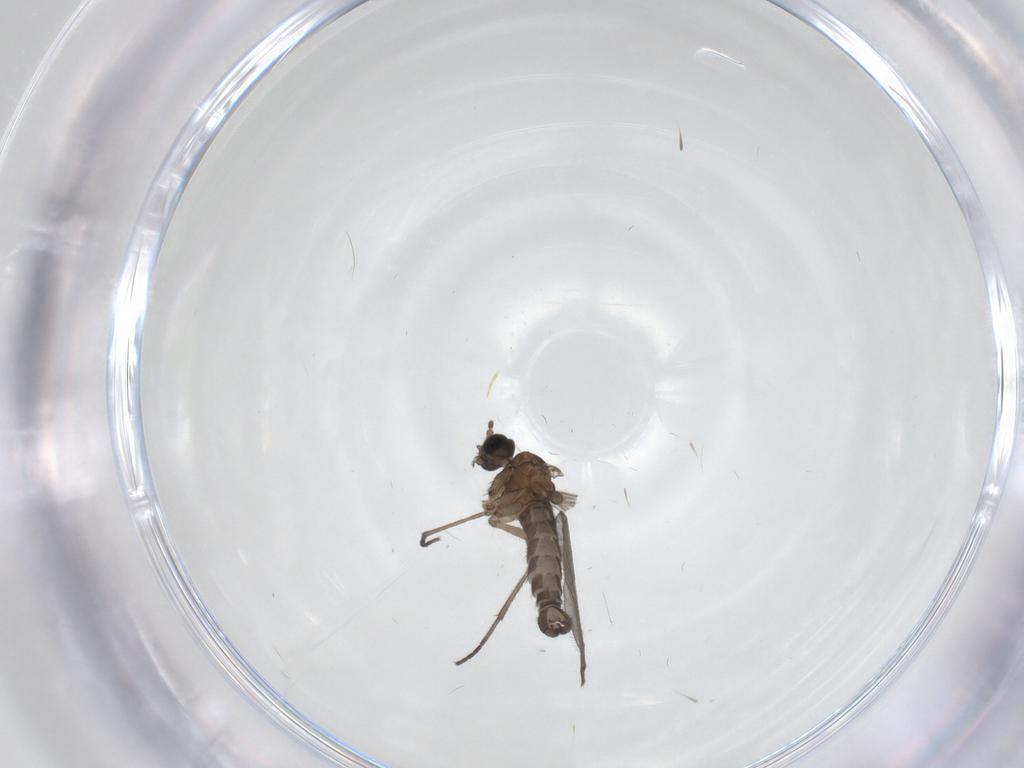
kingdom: Animalia
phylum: Arthropoda
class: Insecta
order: Diptera
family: Sciaridae
